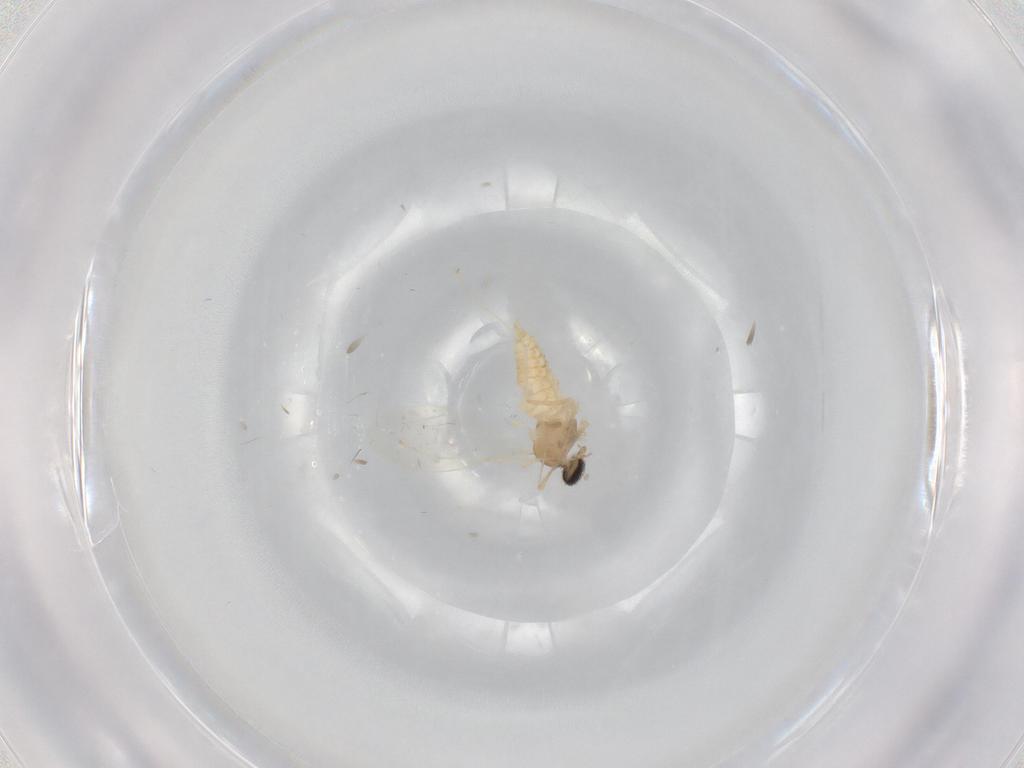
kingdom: Animalia
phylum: Arthropoda
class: Insecta
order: Diptera
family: Cecidomyiidae
